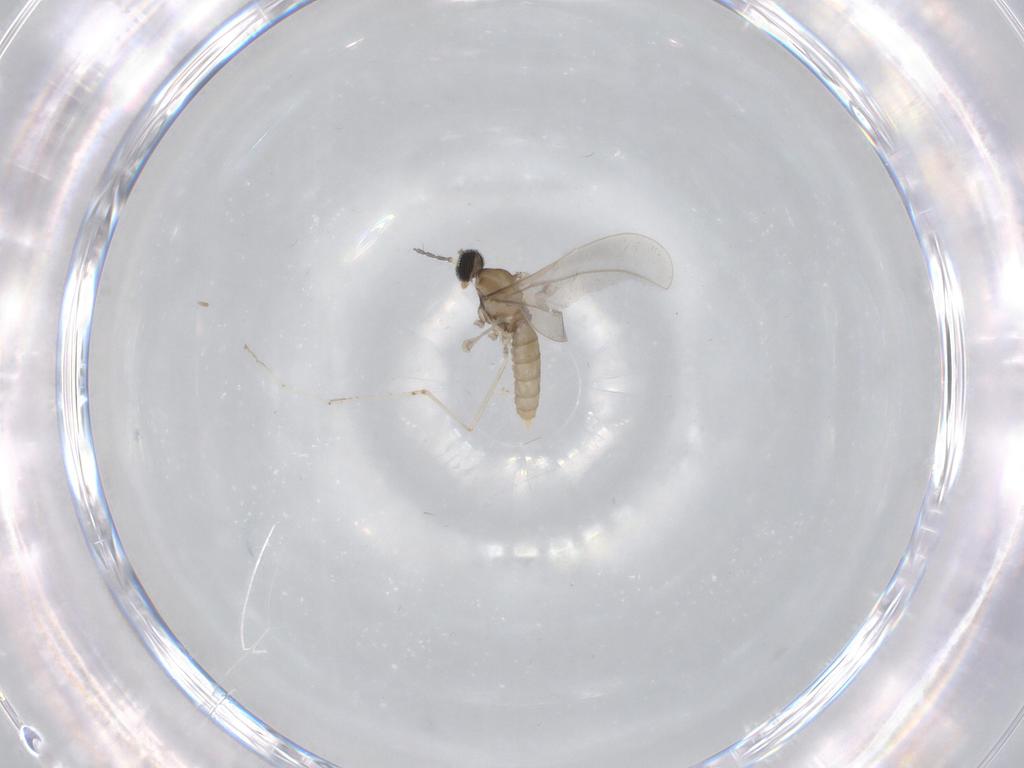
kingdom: Animalia
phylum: Arthropoda
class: Insecta
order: Diptera
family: Cecidomyiidae
